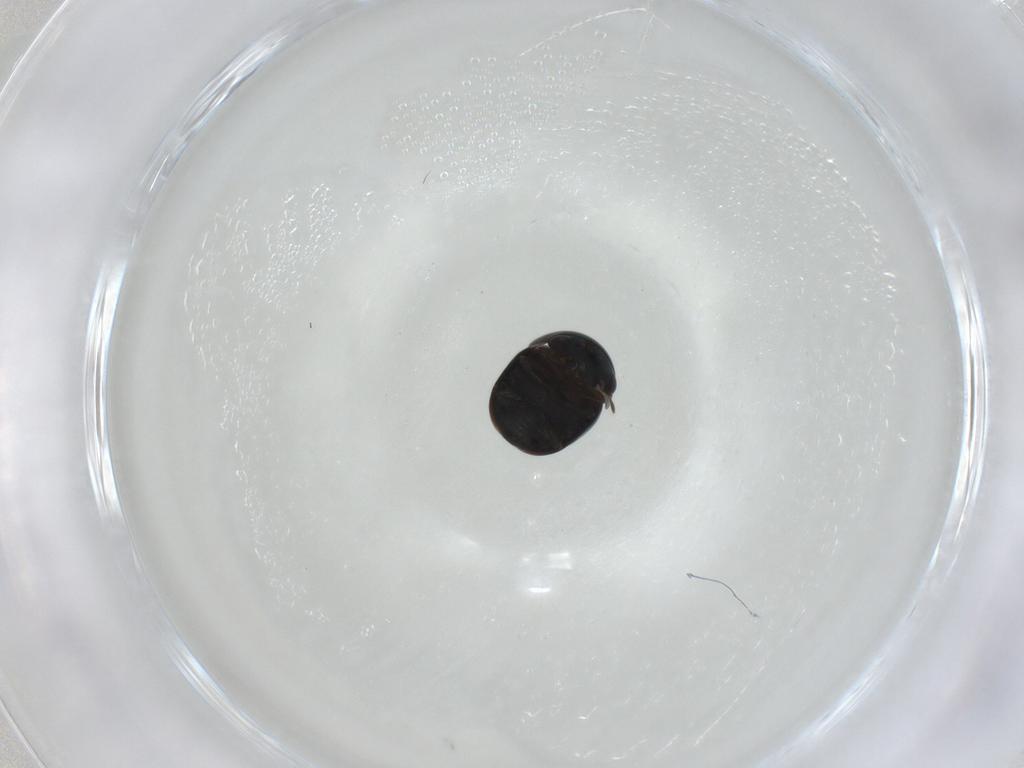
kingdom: Animalia
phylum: Arthropoda
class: Insecta
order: Coleoptera
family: Cybocephalidae
